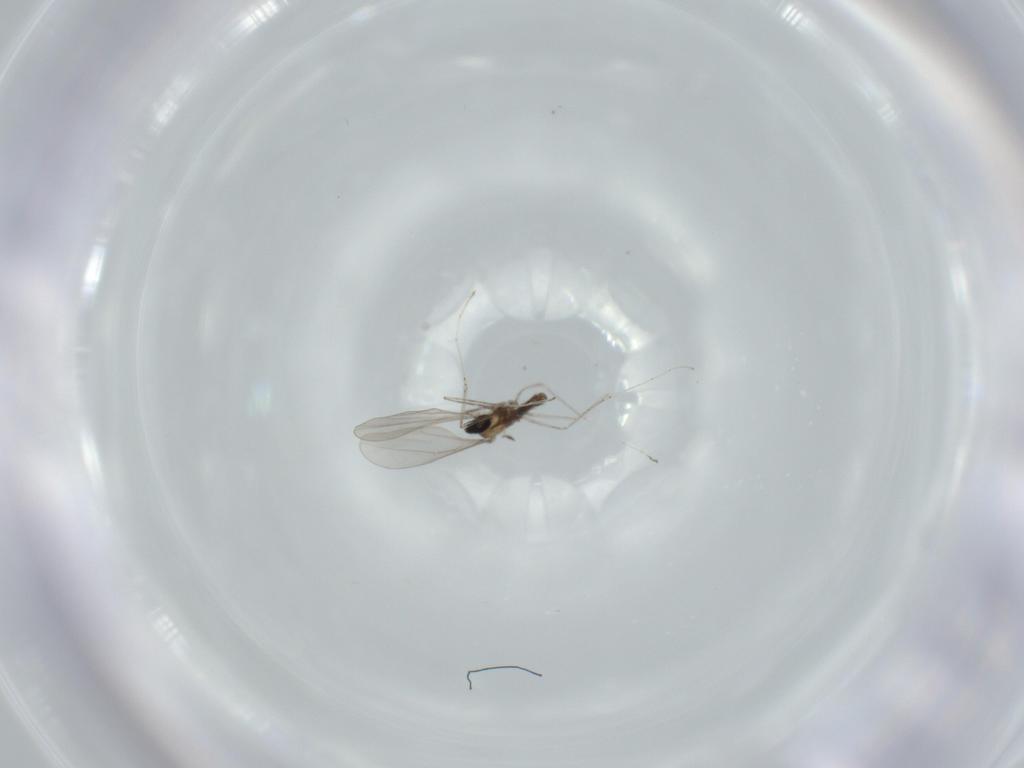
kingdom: Animalia
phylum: Arthropoda
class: Insecta
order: Diptera
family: Cecidomyiidae
